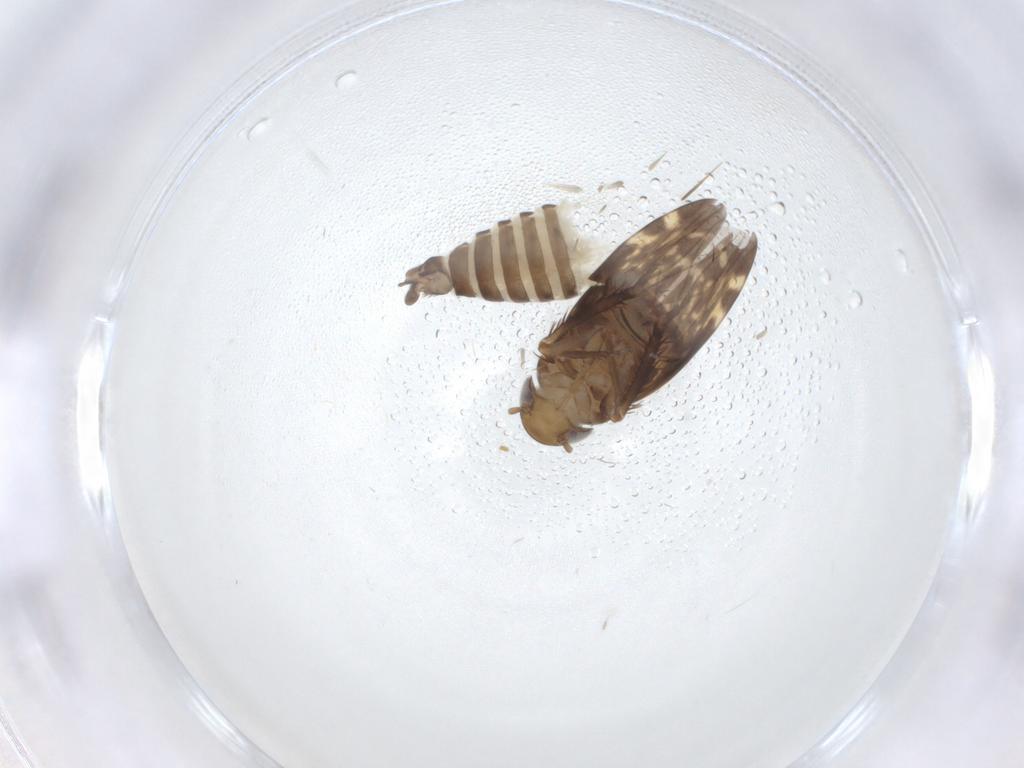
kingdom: Animalia
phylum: Arthropoda
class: Insecta
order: Hemiptera
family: Cicadellidae
